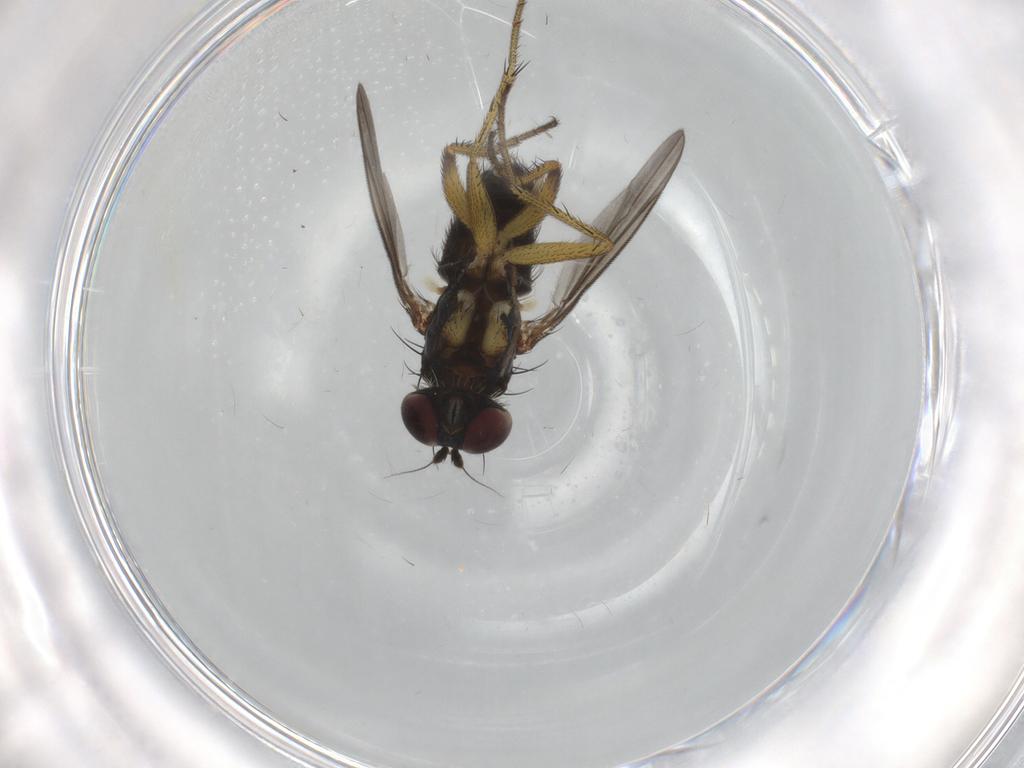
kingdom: Animalia
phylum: Arthropoda
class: Insecta
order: Diptera
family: Dolichopodidae
